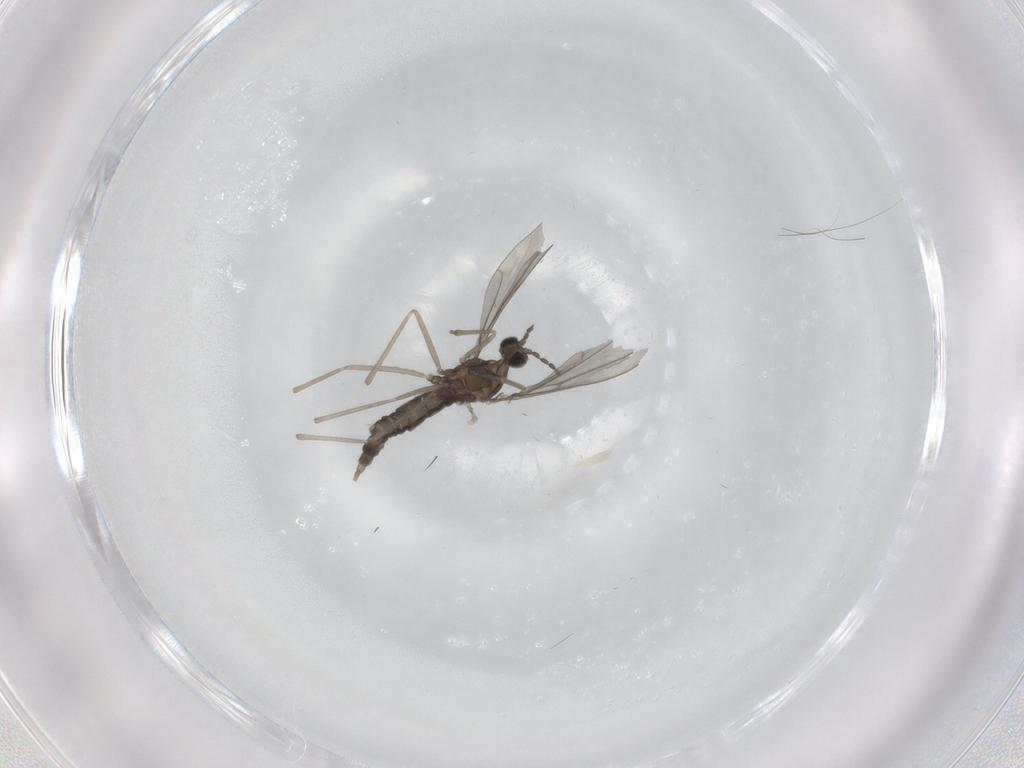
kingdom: Animalia
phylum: Arthropoda
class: Insecta
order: Diptera
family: Cecidomyiidae
